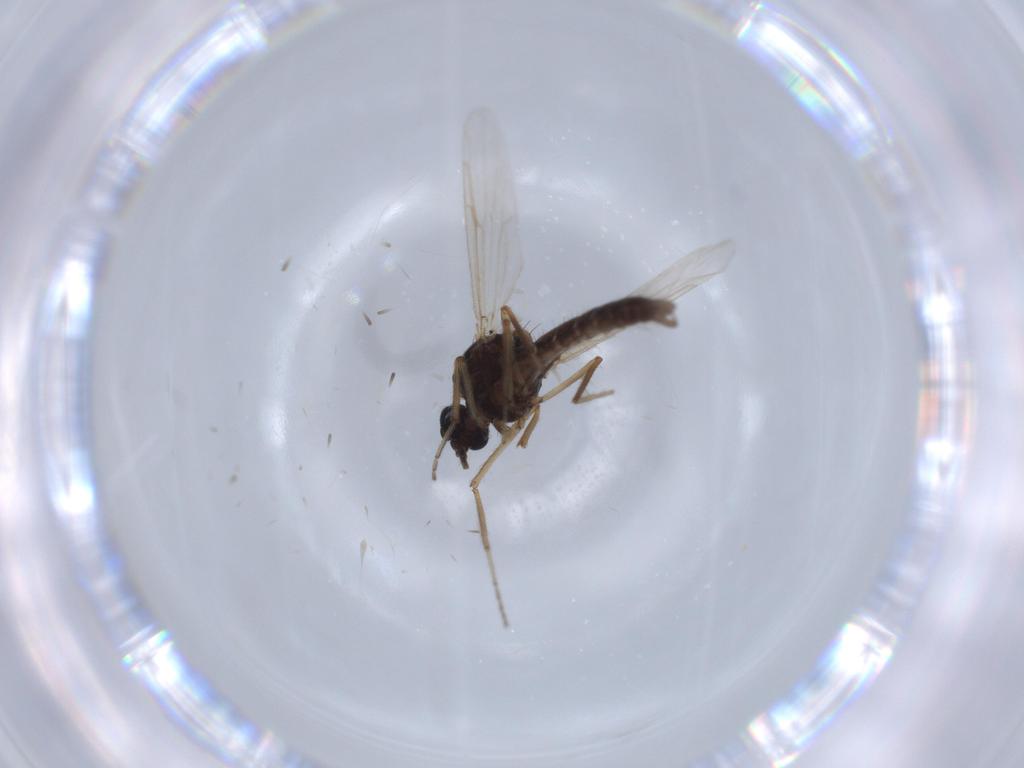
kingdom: Animalia
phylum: Arthropoda
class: Insecta
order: Diptera
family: Ceratopogonidae
